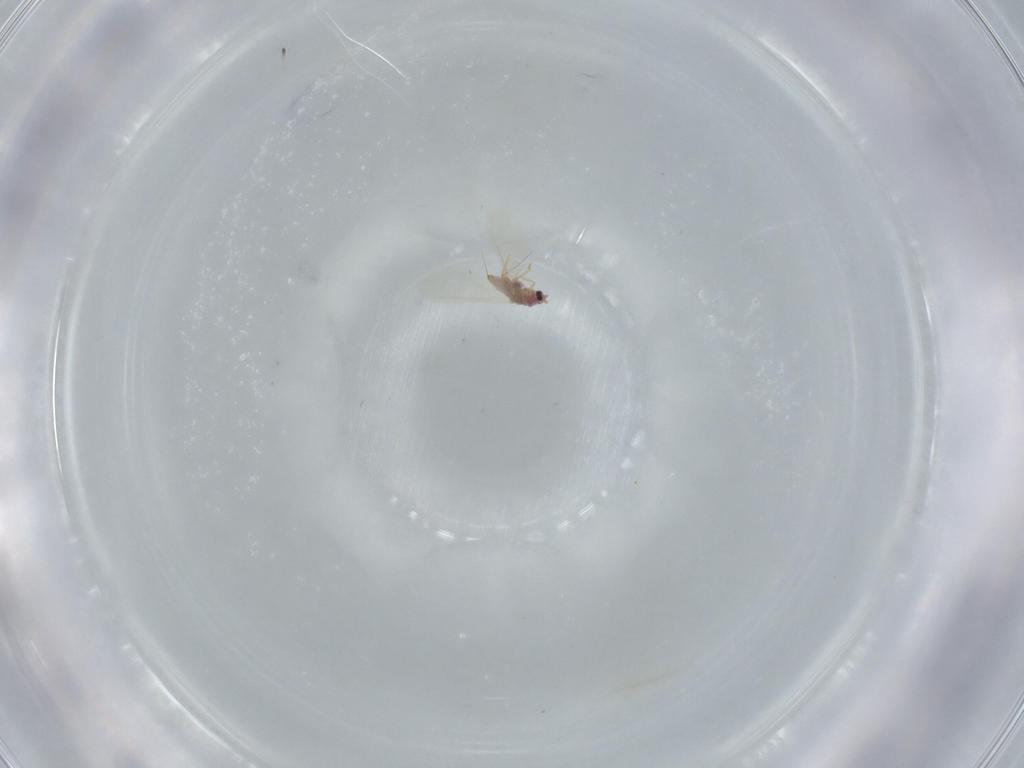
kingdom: Animalia
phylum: Arthropoda
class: Insecta
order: Hemiptera
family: Diaspididae
